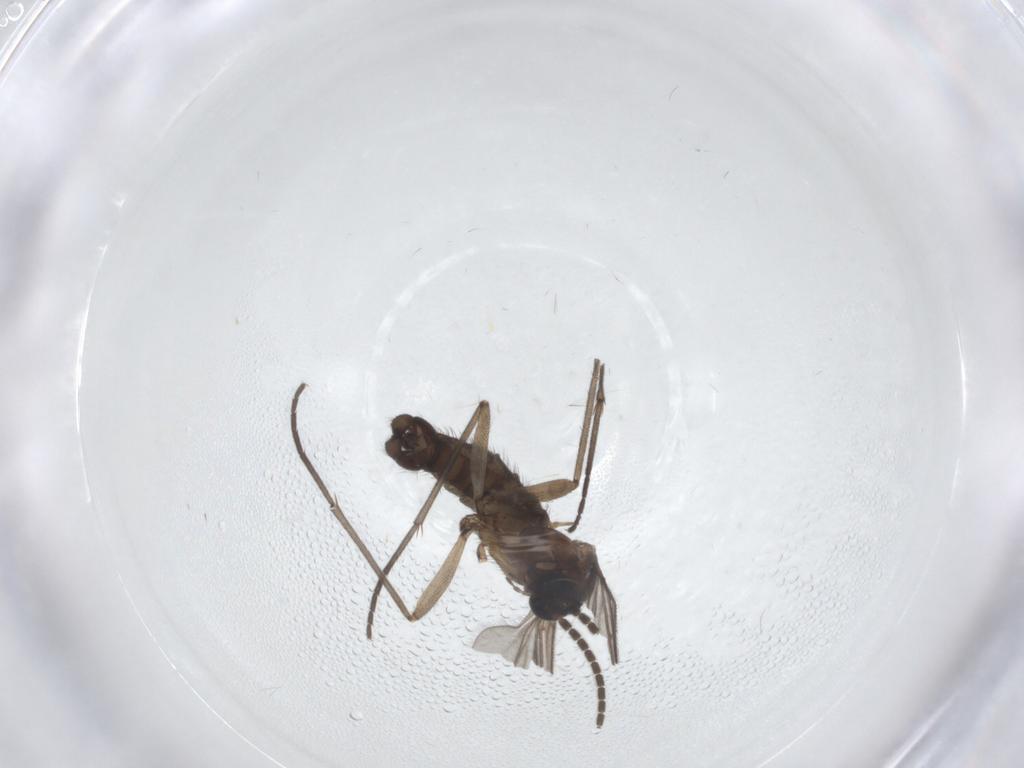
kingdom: Animalia
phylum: Arthropoda
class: Insecta
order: Diptera
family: Sciaridae
